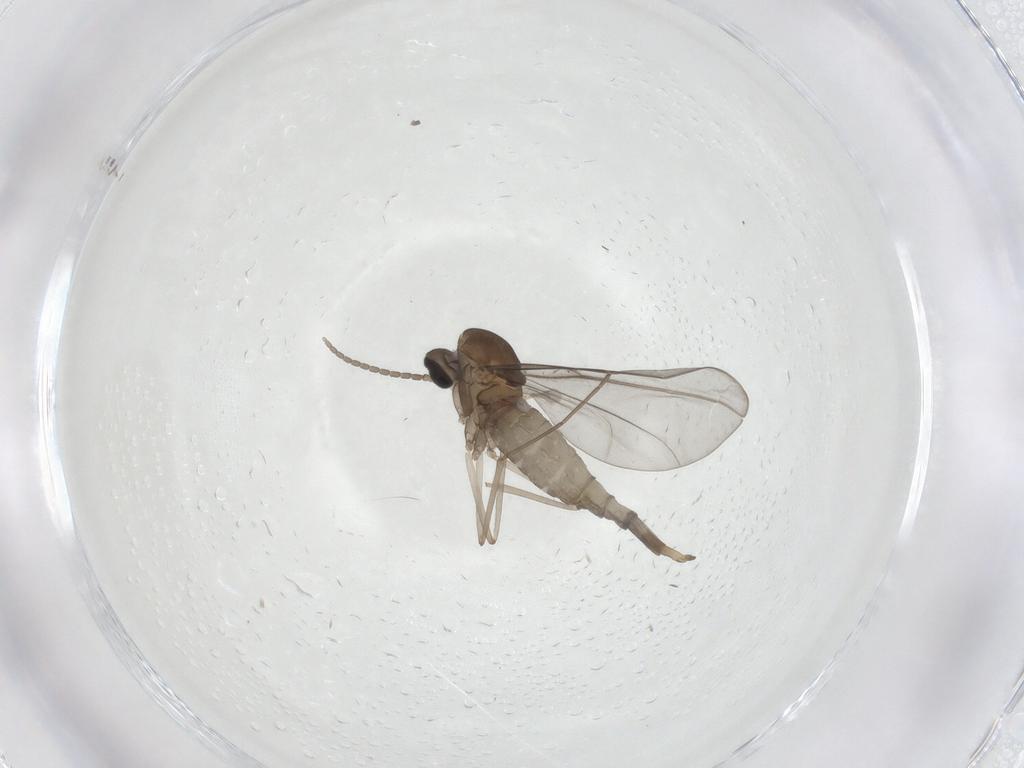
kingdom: Animalia
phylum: Arthropoda
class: Insecta
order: Diptera
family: Cecidomyiidae
